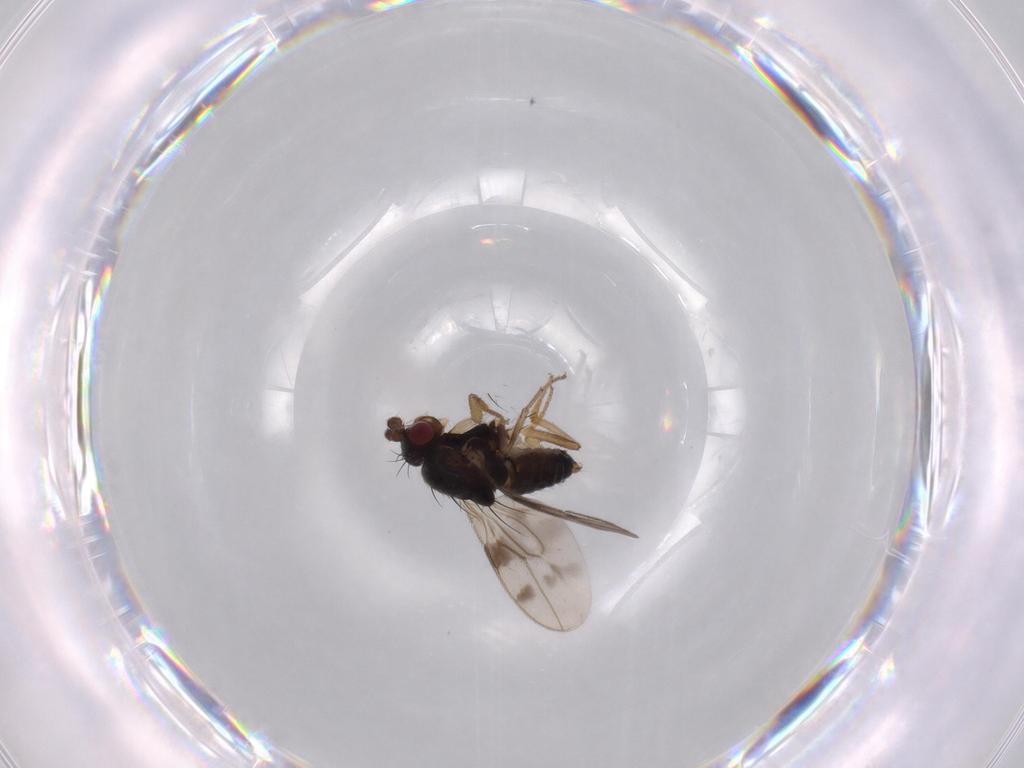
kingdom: Animalia
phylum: Arthropoda
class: Insecta
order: Diptera
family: Sphaeroceridae
